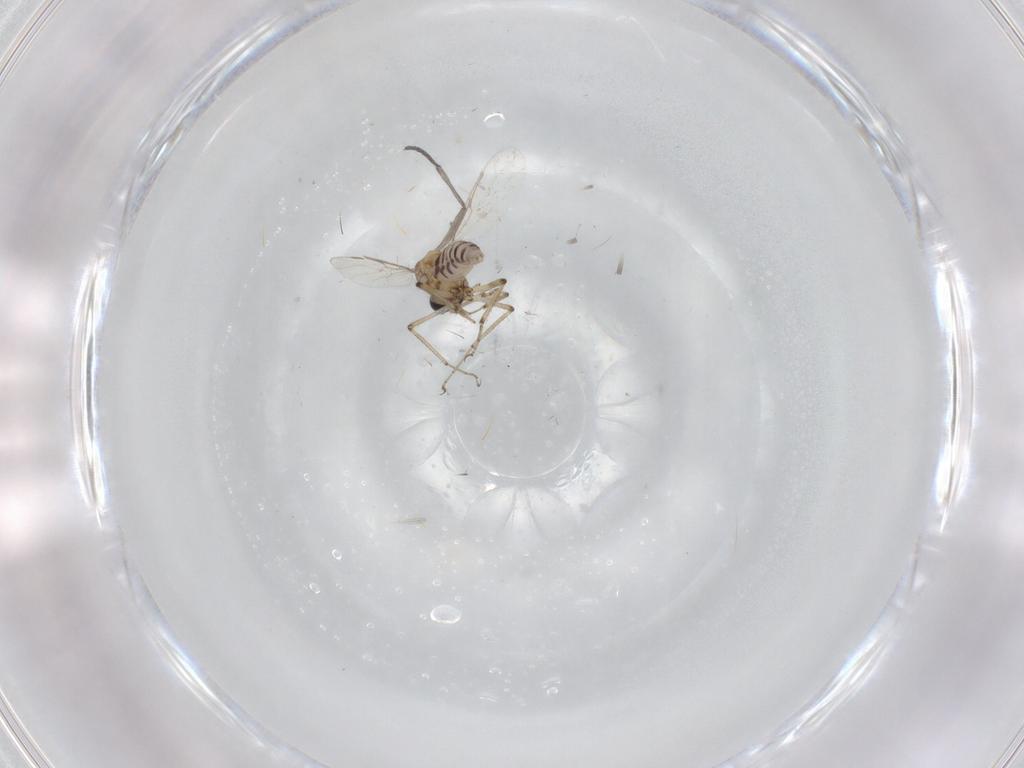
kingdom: Animalia
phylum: Arthropoda
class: Insecta
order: Diptera
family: Sciaridae
